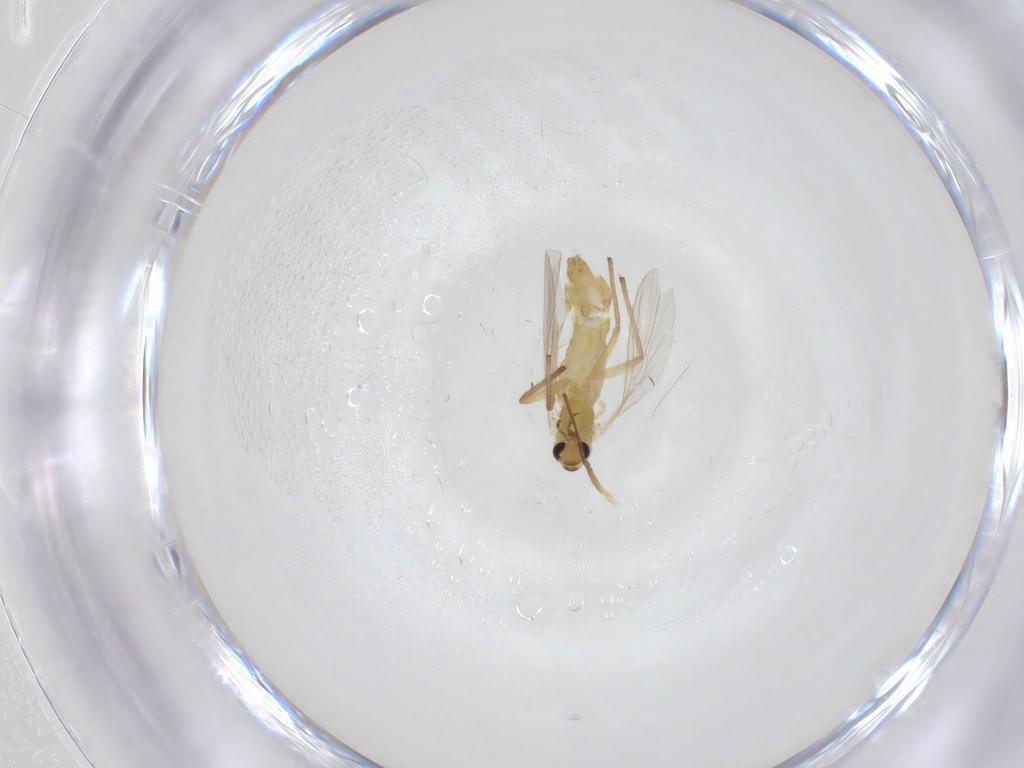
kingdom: Animalia
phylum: Arthropoda
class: Insecta
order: Diptera
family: Chironomidae
